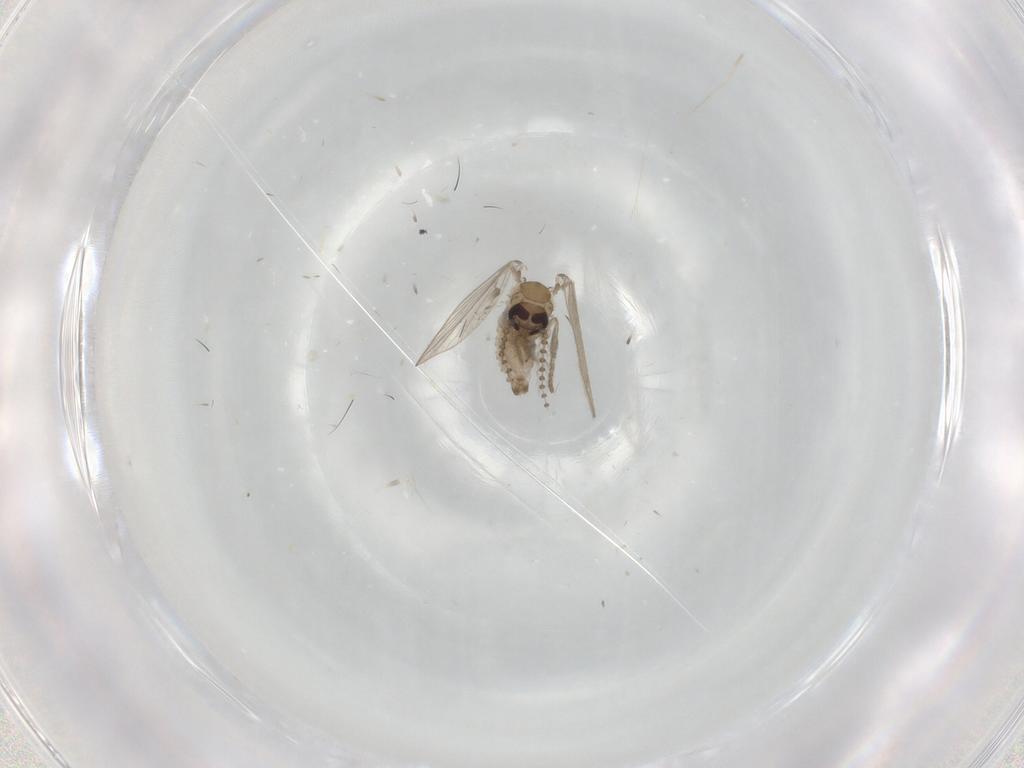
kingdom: Animalia
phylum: Arthropoda
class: Insecta
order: Diptera
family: Psychodidae
